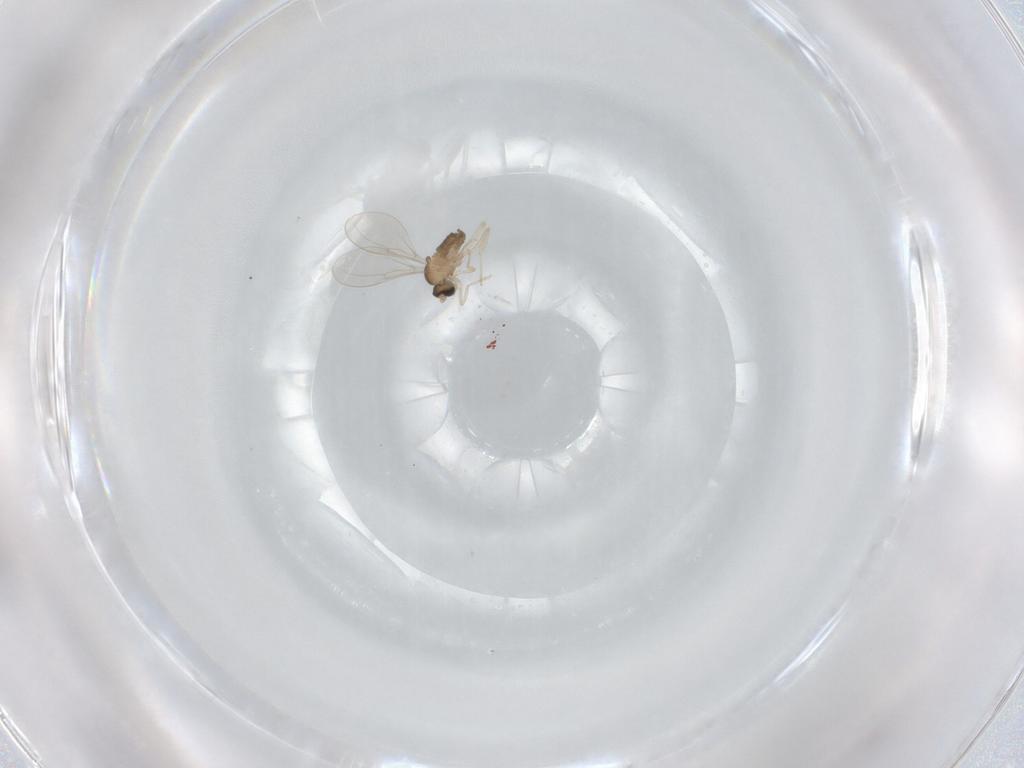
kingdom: Animalia
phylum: Arthropoda
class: Insecta
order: Diptera
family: Cecidomyiidae
